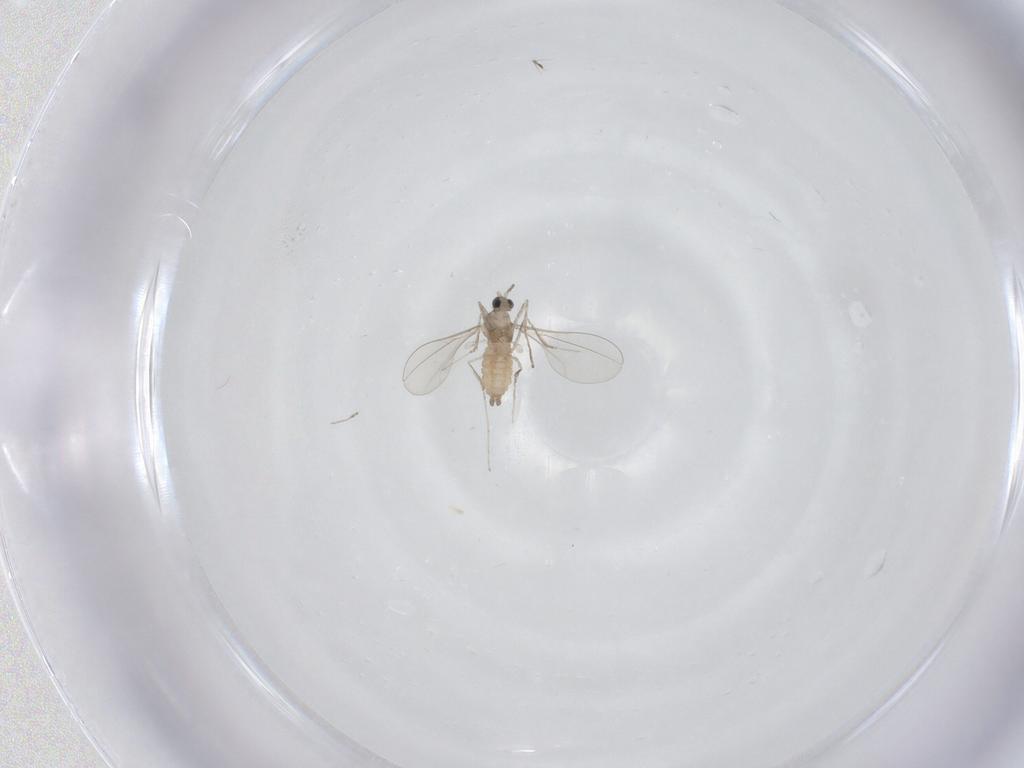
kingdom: Animalia
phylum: Arthropoda
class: Insecta
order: Diptera
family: Cecidomyiidae
